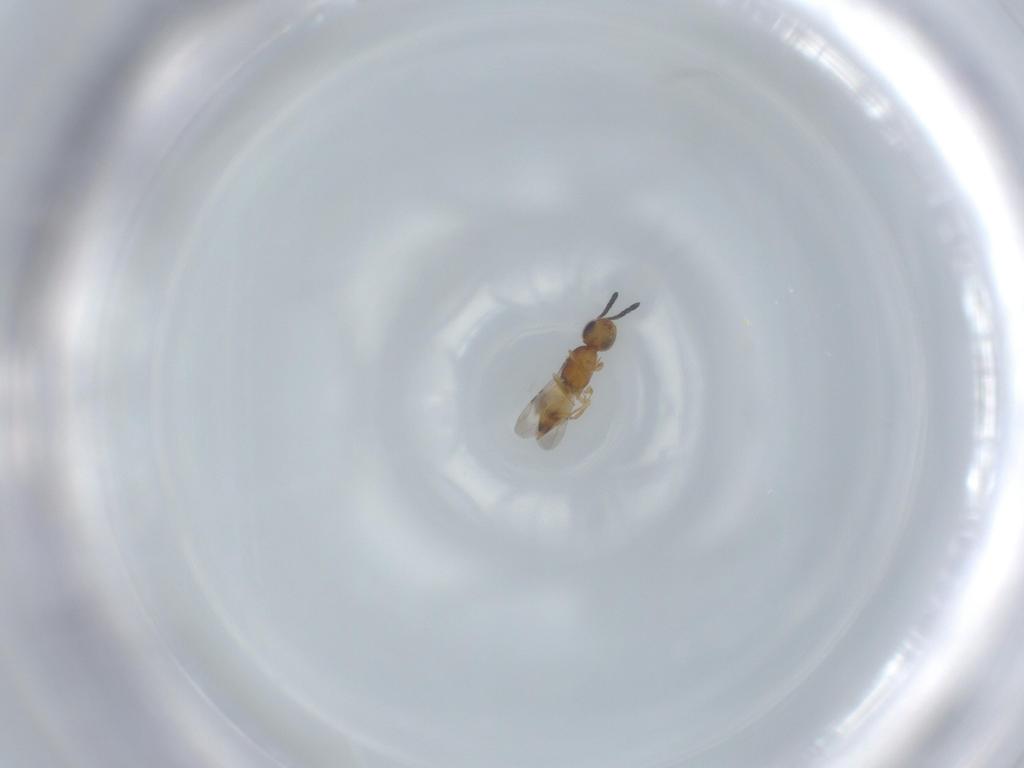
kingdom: Animalia
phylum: Arthropoda
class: Insecta
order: Hymenoptera
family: Ceraphronidae
